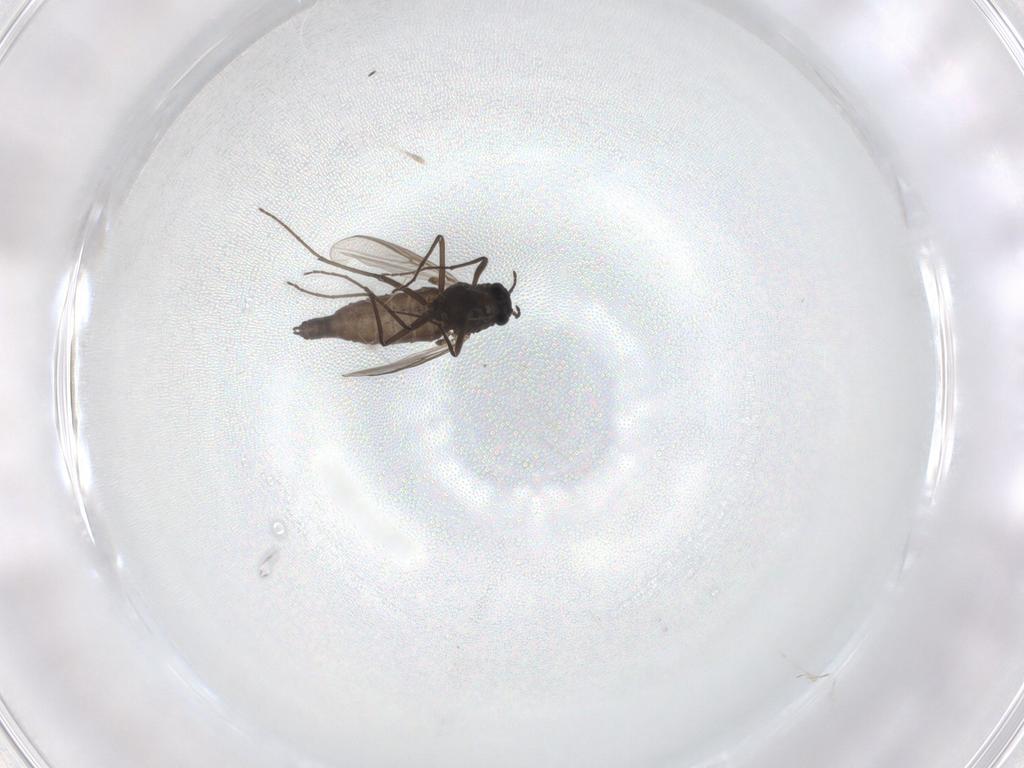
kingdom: Animalia
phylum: Arthropoda
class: Insecta
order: Diptera
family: Chironomidae
